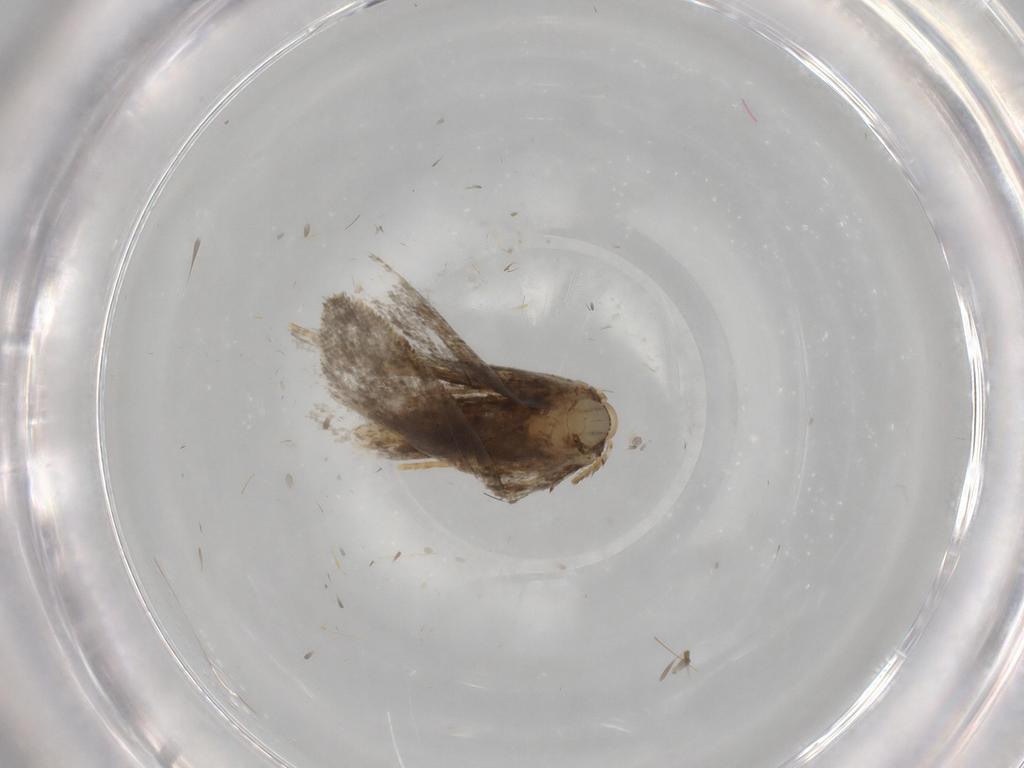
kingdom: Animalia
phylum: Arthropoda
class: Insecta
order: Lepidoptera
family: Psychidae
